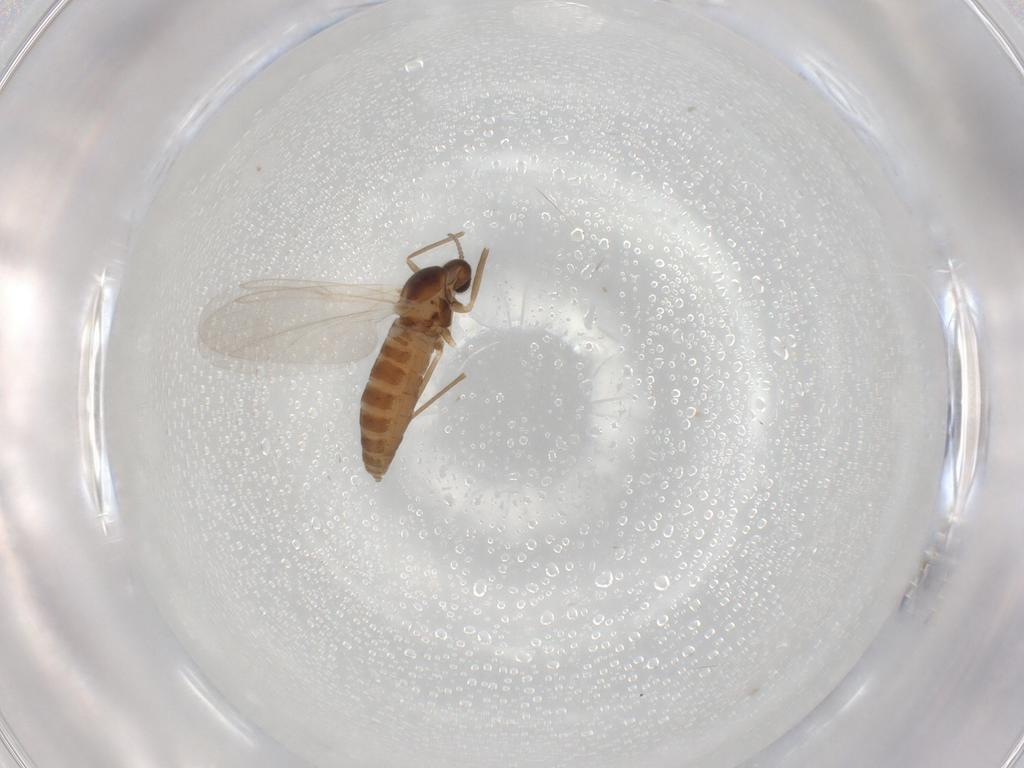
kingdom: Animalia
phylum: Arthropoda
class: Insecta
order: Diptera
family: Cecidomyiidae
